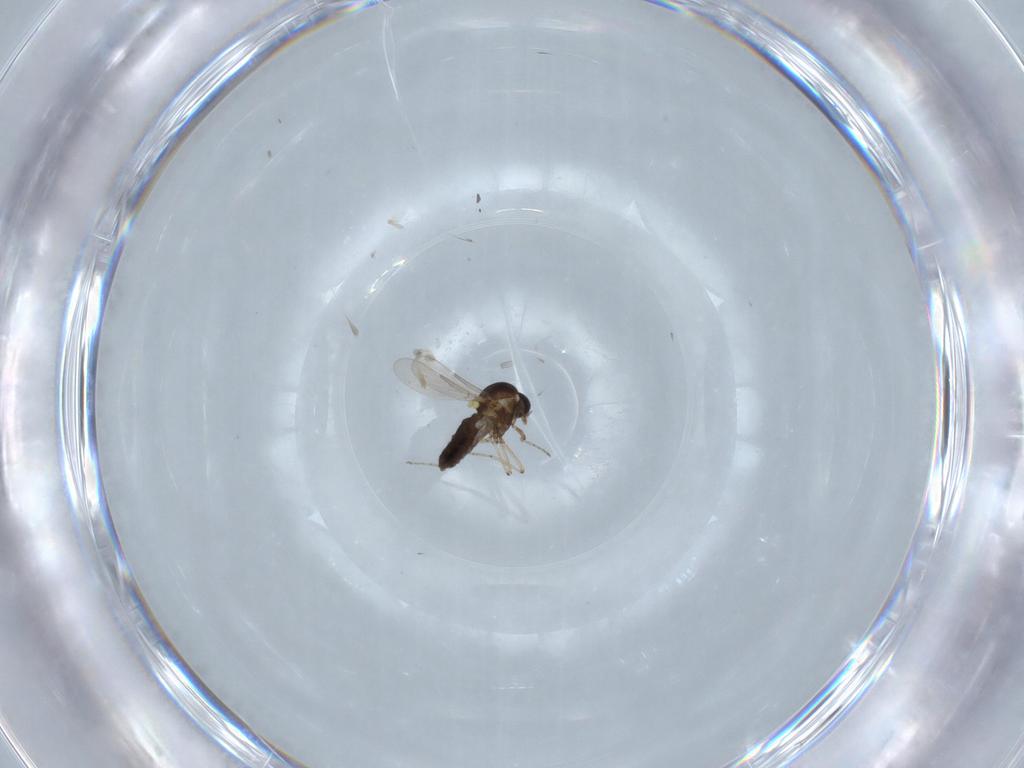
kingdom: Animalia
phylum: Arthropoda
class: Insecta
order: Diptera
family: Ceratopogonidae
